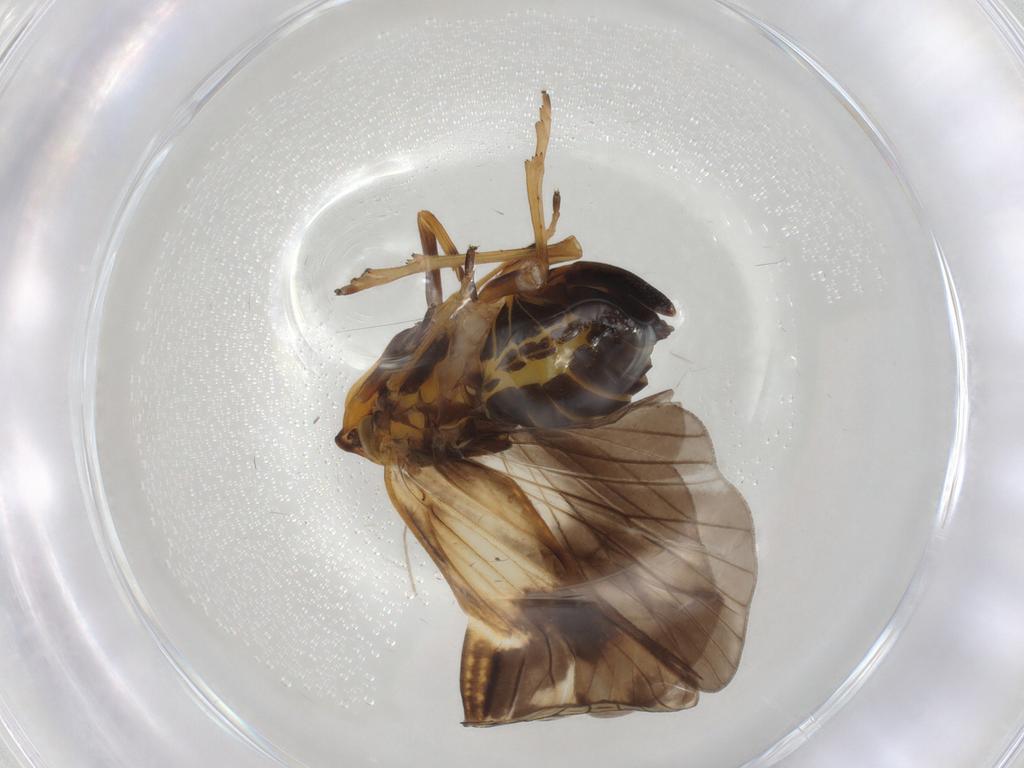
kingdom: Animalia
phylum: Arthropoda
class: Insecta
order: Hemiptera
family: Cixiidae
